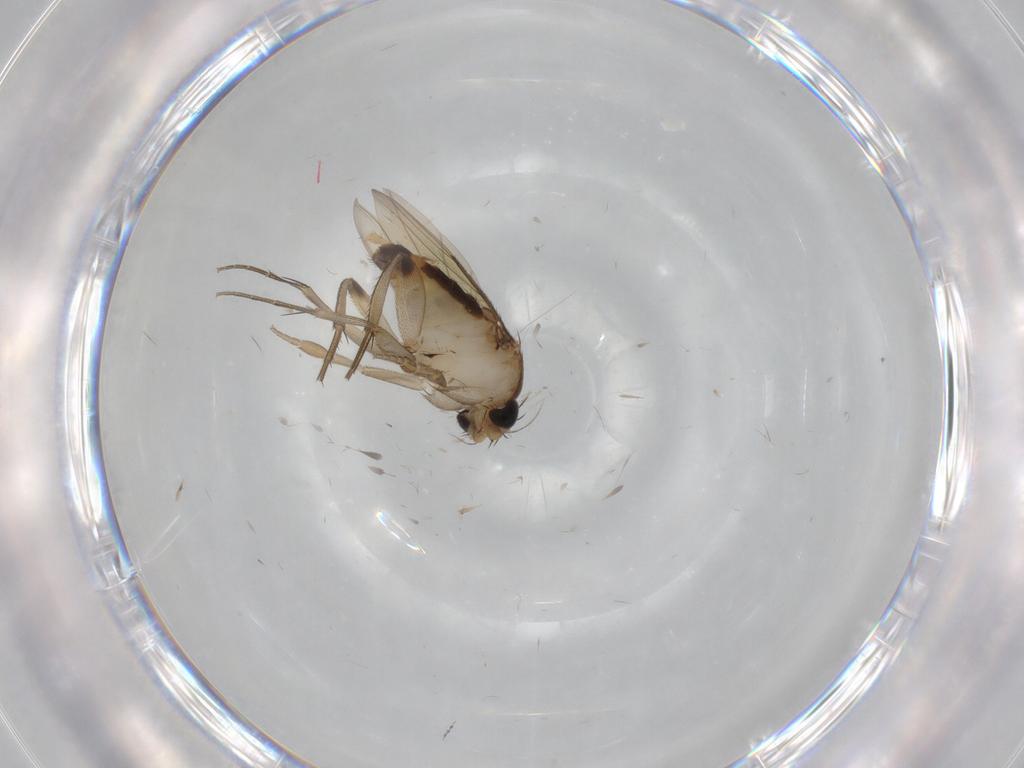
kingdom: Animalia
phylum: Arthropoda
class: Insecta
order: Diptera
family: Phoridae
